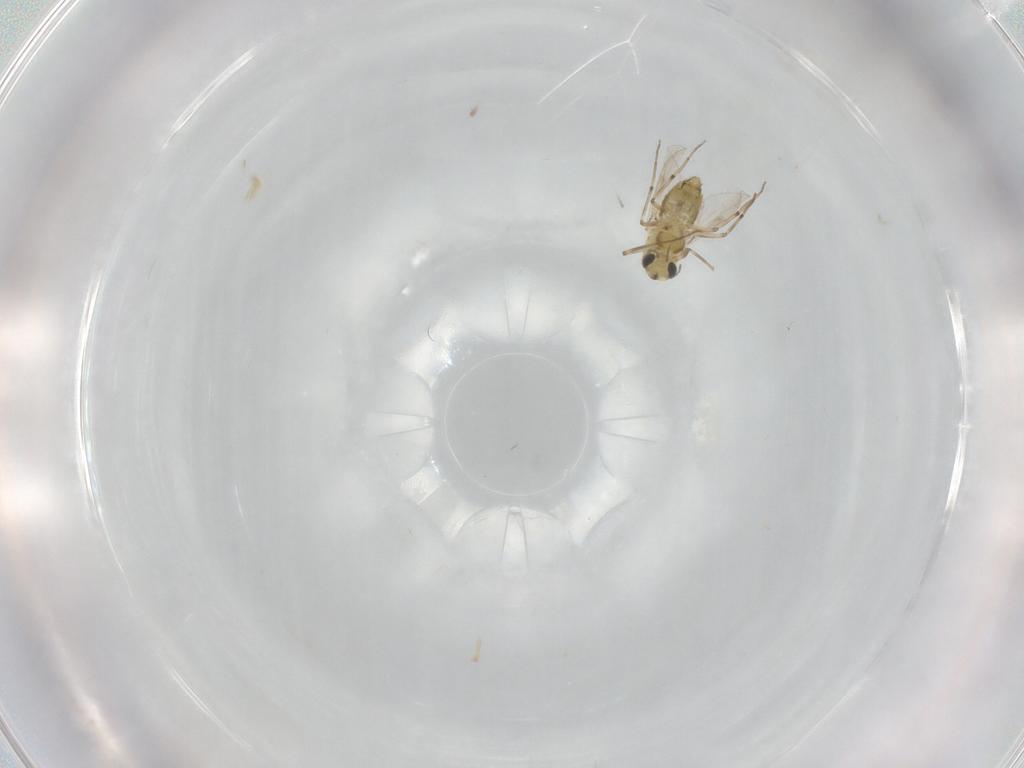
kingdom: Animalia
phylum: Arthropoda
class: Insecta
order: Diptera
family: Chironomidae
